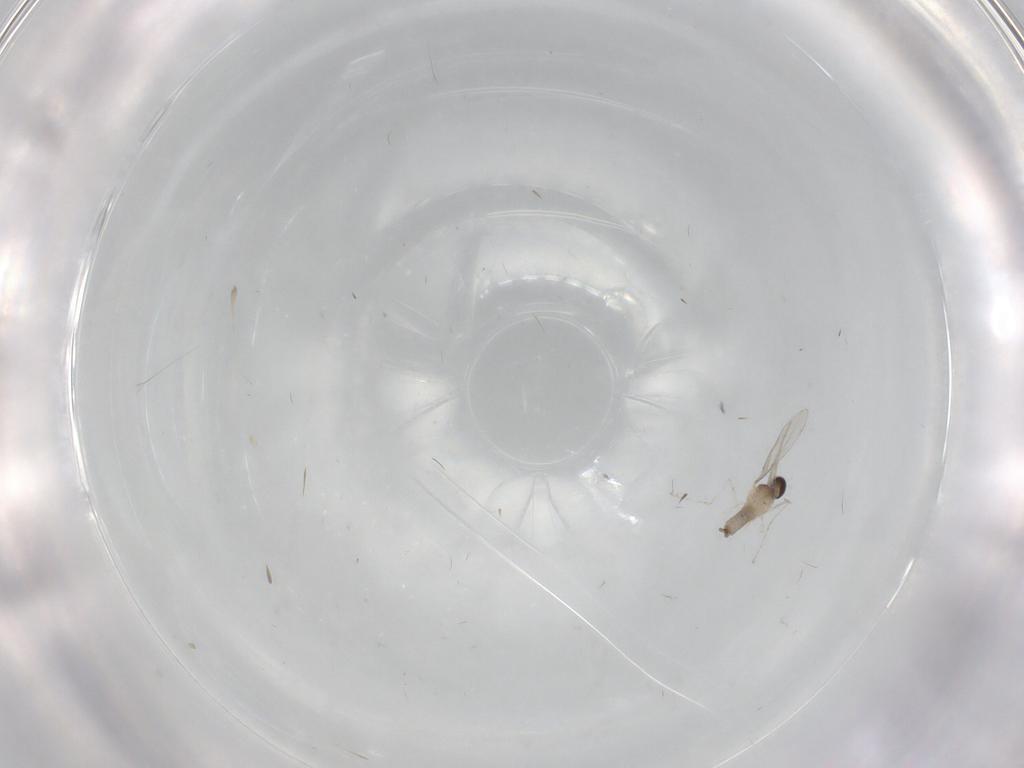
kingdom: Animalia
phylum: Arthropoda
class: Insecta
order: Diptera
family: Cecidomyiidae
